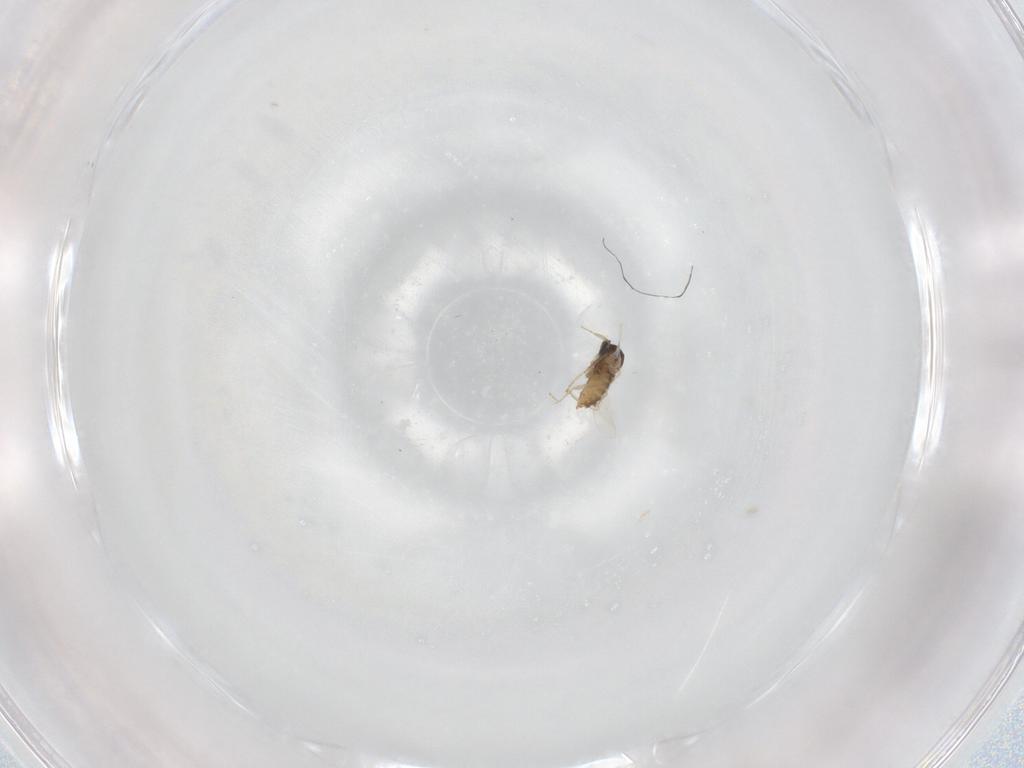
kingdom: Animalia
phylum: Arthropoda
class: Insecta
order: Diptera
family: Cecidomyiidae
